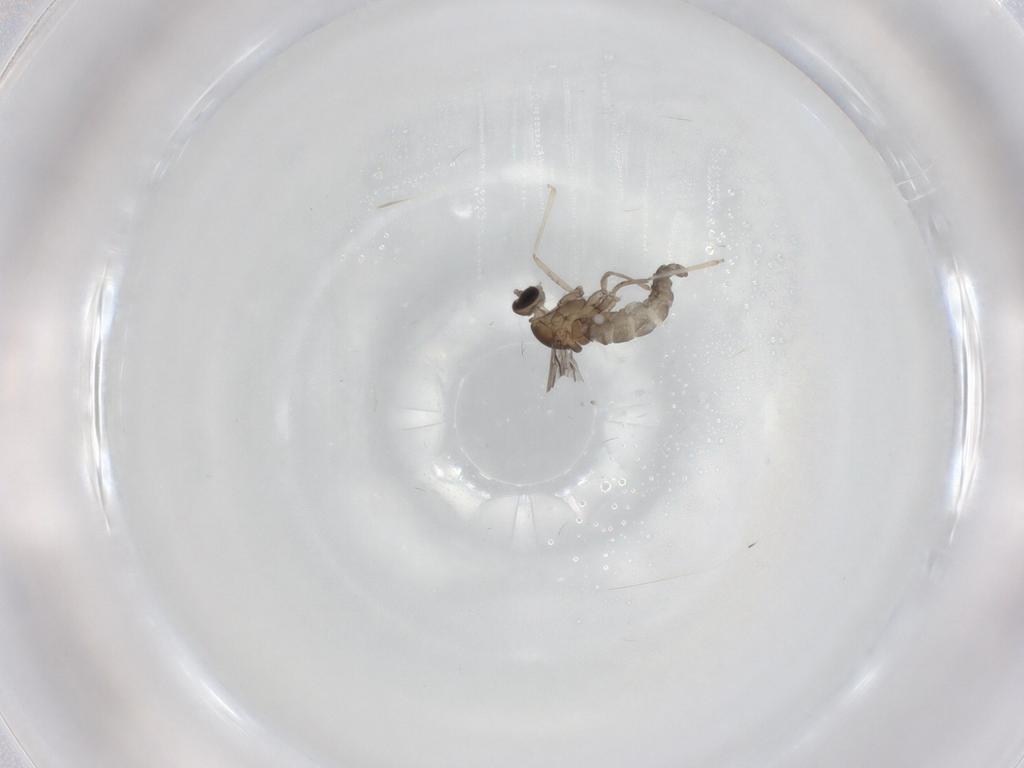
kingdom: Animalia
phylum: Arthropoda
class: Insecta
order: Diptera
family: Cecidomyiidae
